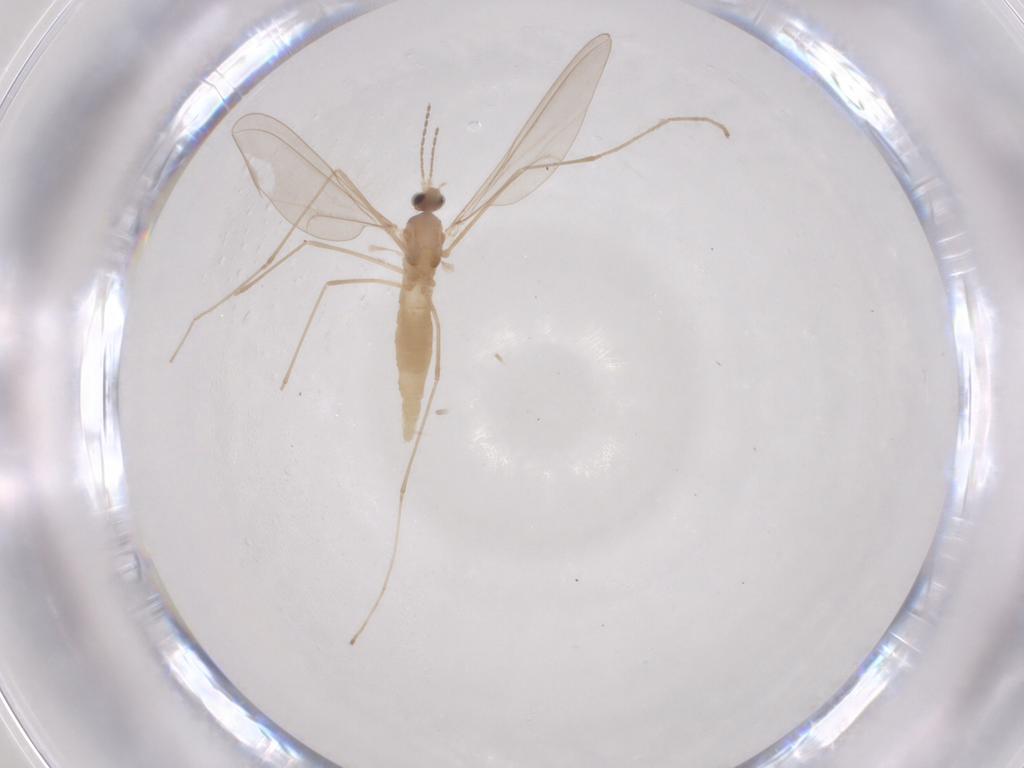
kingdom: Animalia
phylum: Arthropoda
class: Insecta
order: Diptera
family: Cecidomyiidae
